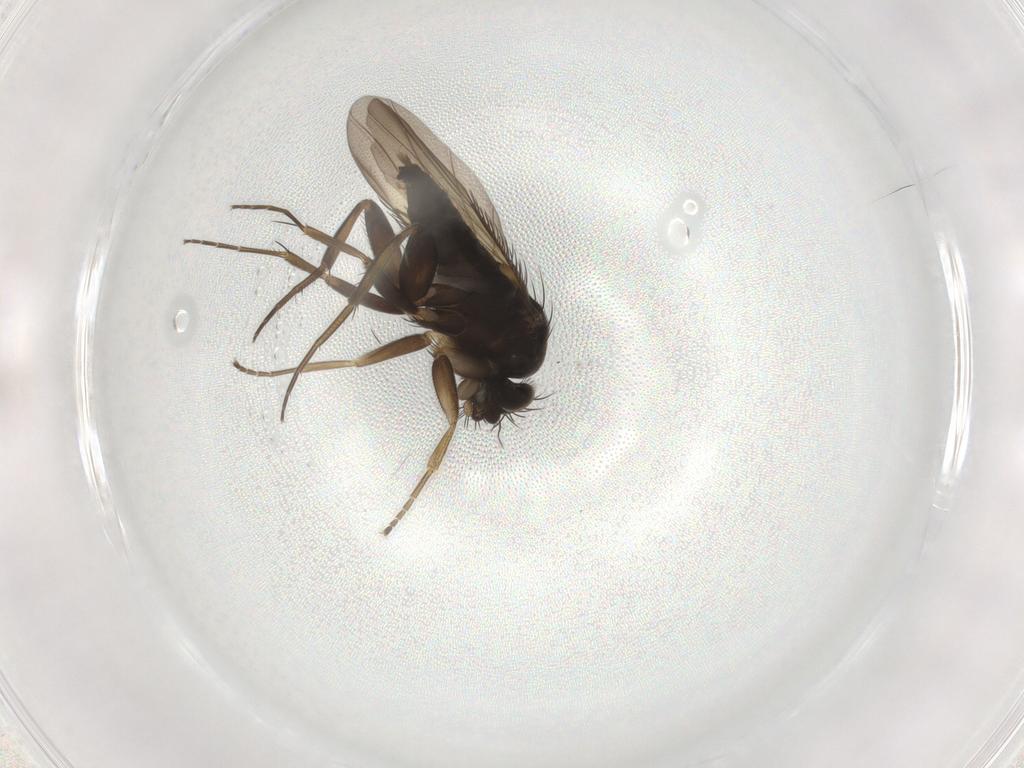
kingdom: Animalia
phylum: Arthropoda
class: Insecta
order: Diptera
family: Phoridae
